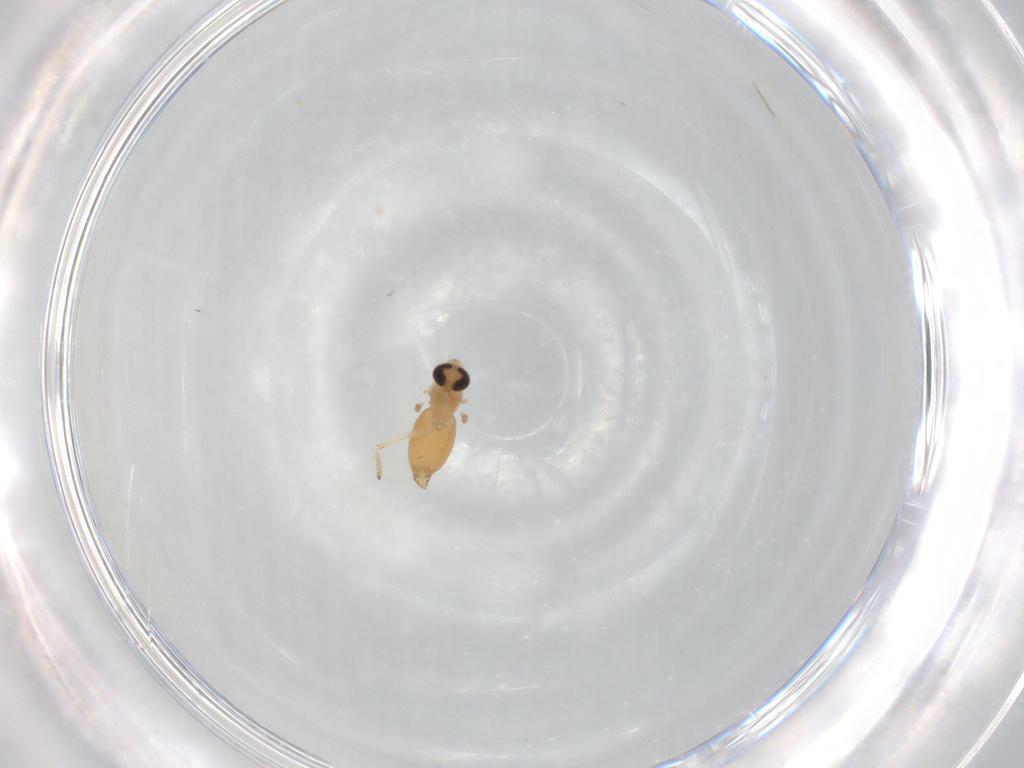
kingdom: Animalia
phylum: Arthropoda
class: Insecta
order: Diptera
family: Chironomidae
